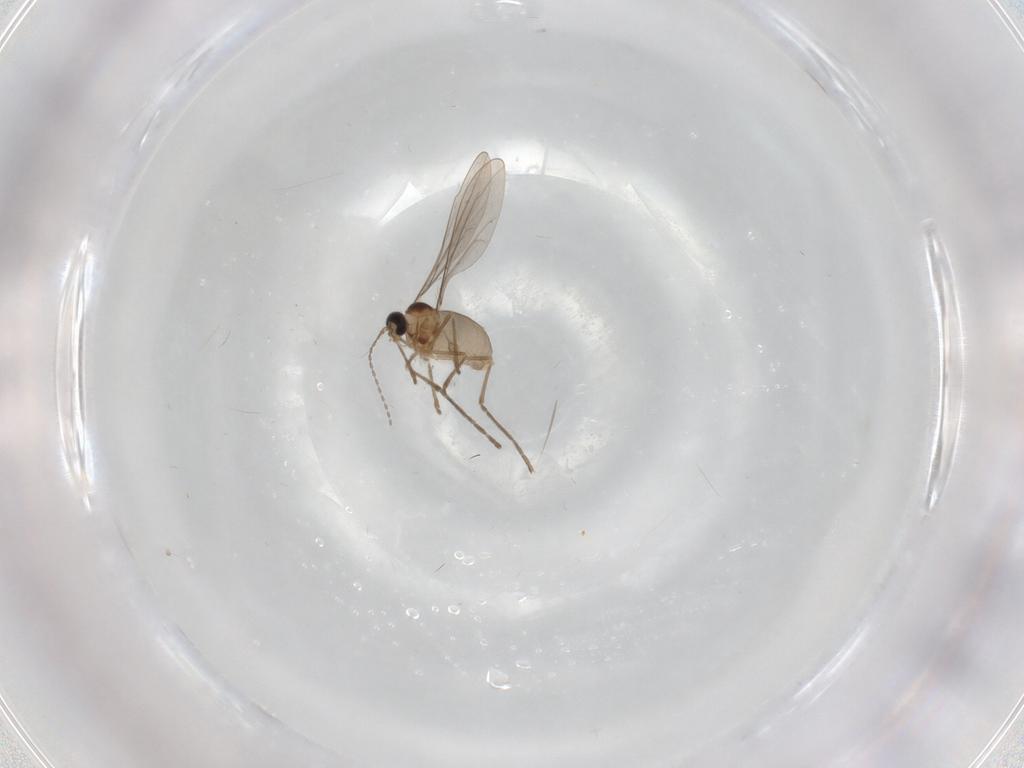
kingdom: Animalia
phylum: Arthropoda
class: Insecta
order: Diptera
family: Cecidomyiidae
